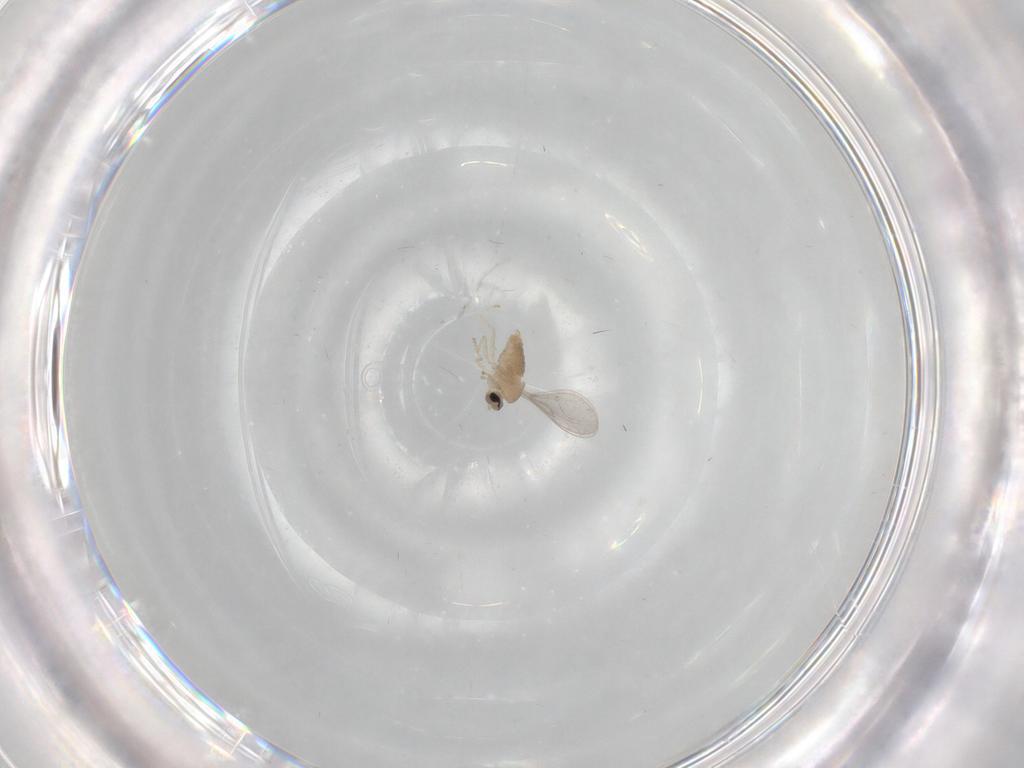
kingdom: Animalia
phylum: Arthropoda
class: Insecta
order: Diptera
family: Cecidomyiidae
